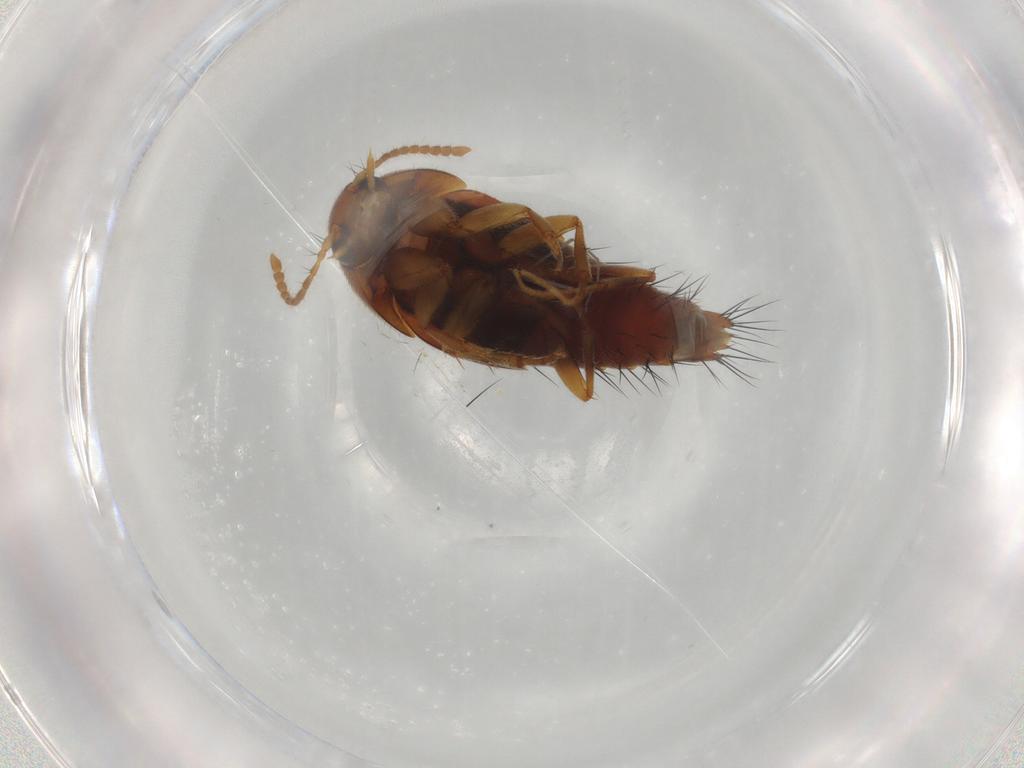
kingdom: Animalia
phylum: Arthropoda
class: Insecta
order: Coleoptera
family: Staphylinidae
